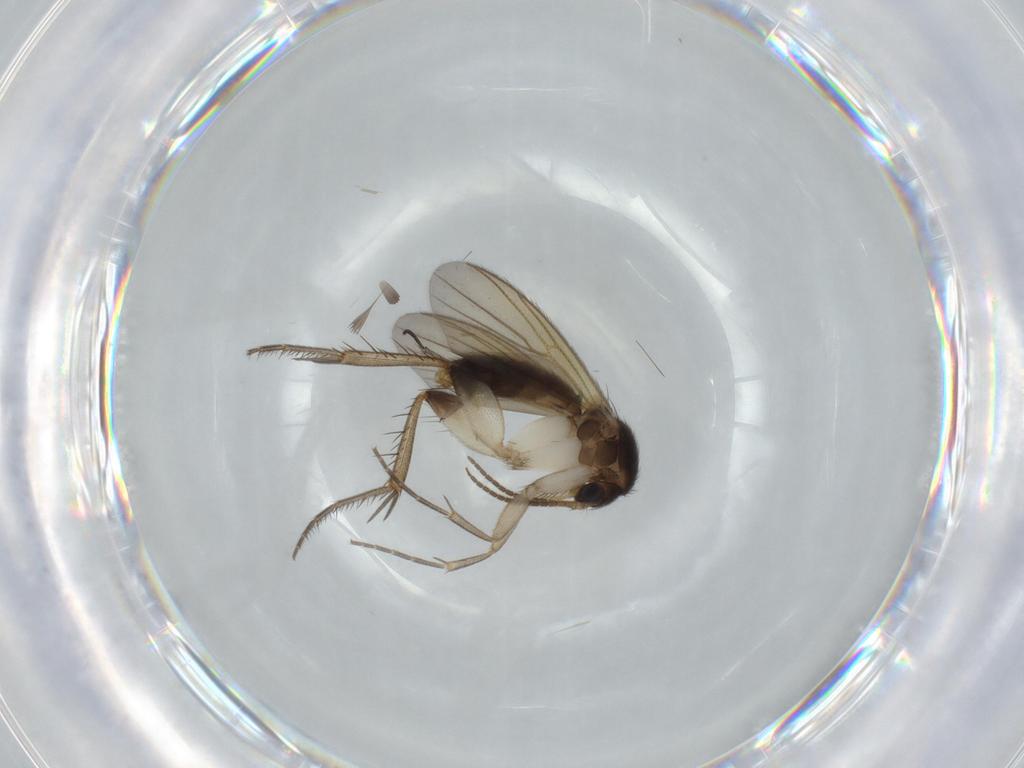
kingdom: Animalia
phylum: Arthropoda
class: Insecta
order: Diptera
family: Sciaridae
